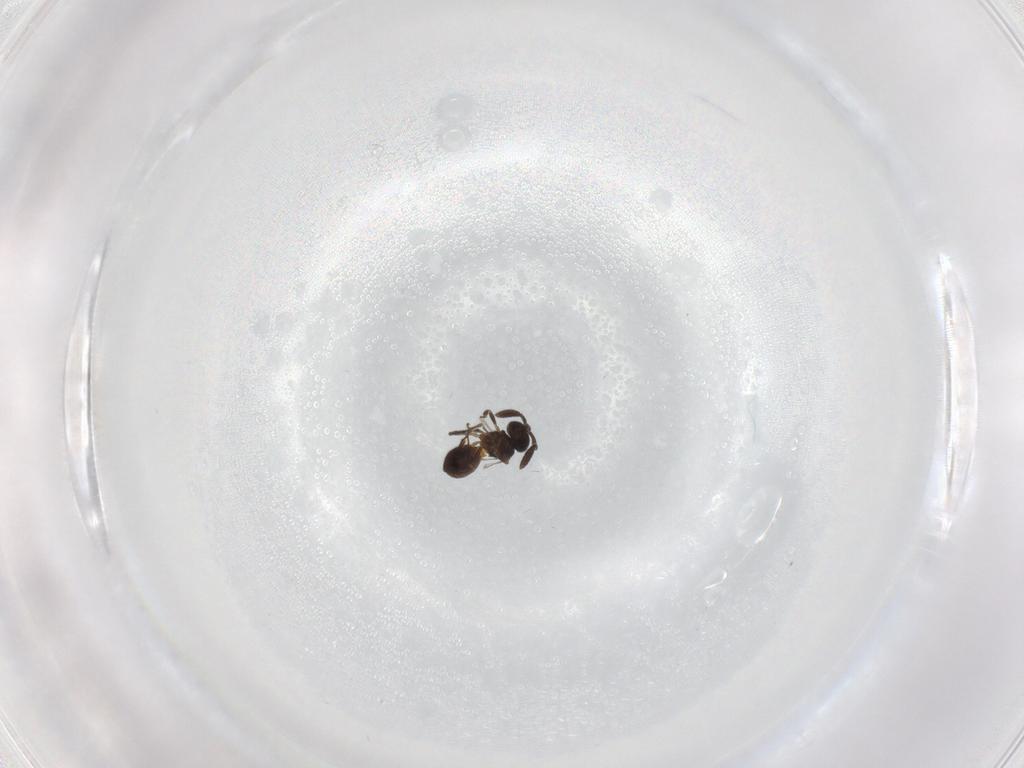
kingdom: Animalia
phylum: Arthropoda
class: Insecta
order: Hymenoptera
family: Scelionidae
